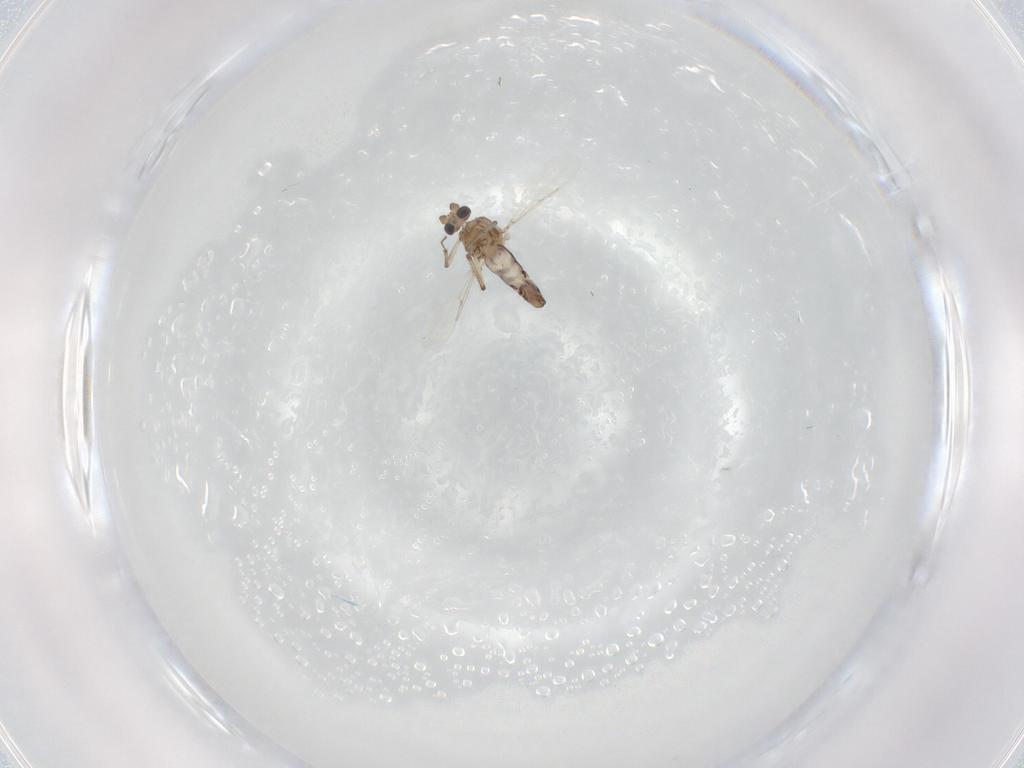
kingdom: Animalia
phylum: Arthropoda
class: Insecta
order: Diptera
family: Ceratopogonidae
